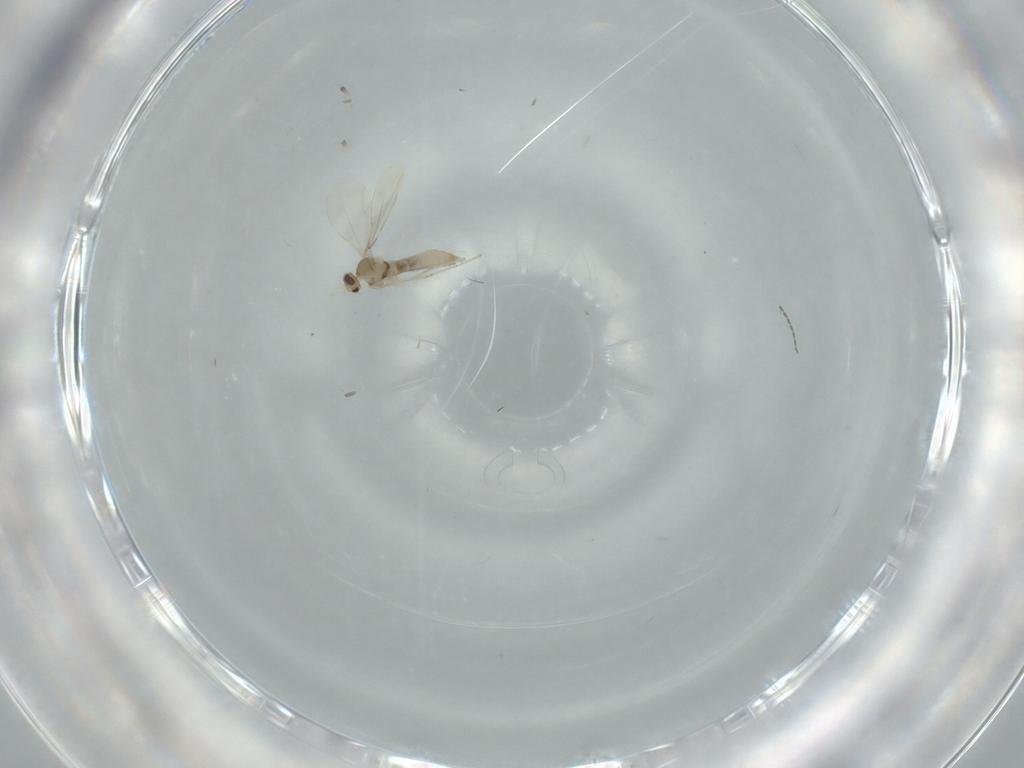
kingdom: Animalia
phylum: Arthropoda
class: Insecta
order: Diptera
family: Cecidomyiidae
